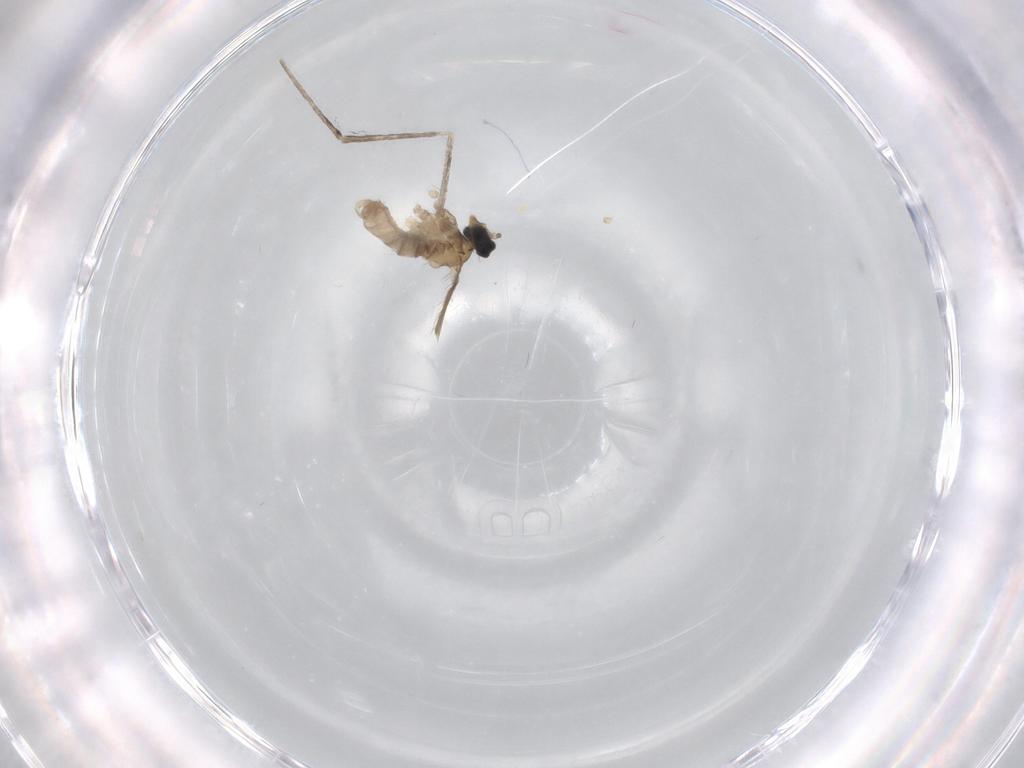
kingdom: Animalia
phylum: Arthropoda
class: Insecta
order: Diptera
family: Cecidomyiidae
